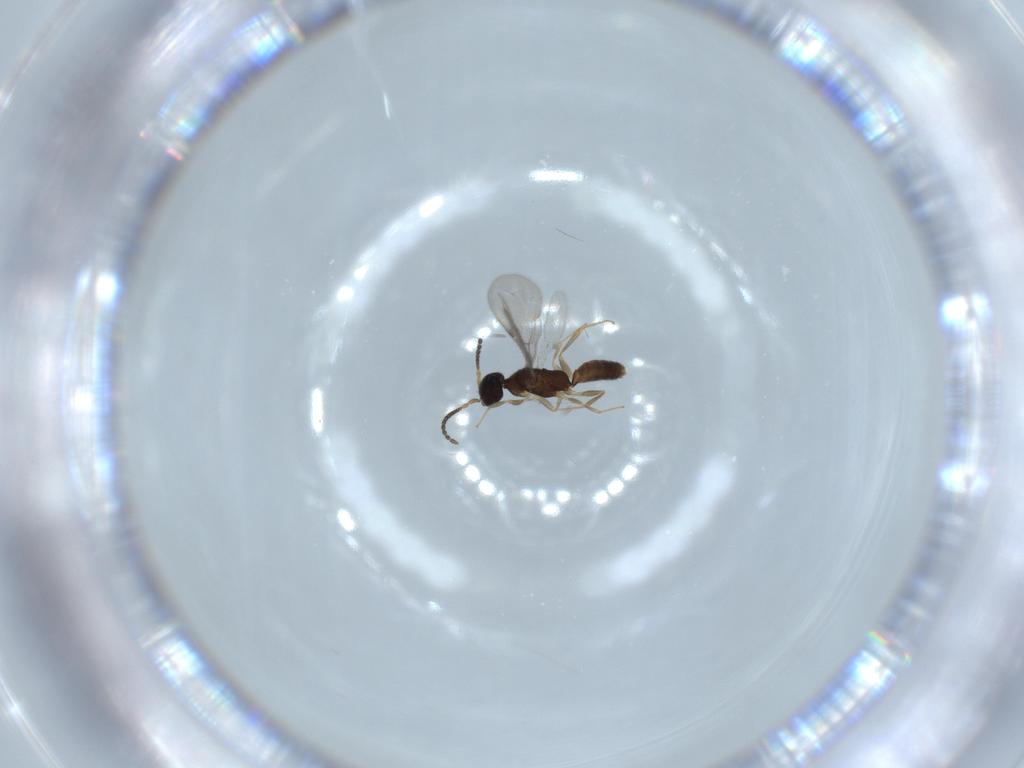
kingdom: Animalia
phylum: Arthropoda
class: Insecta
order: Hymenoptera
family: Bethylidae
